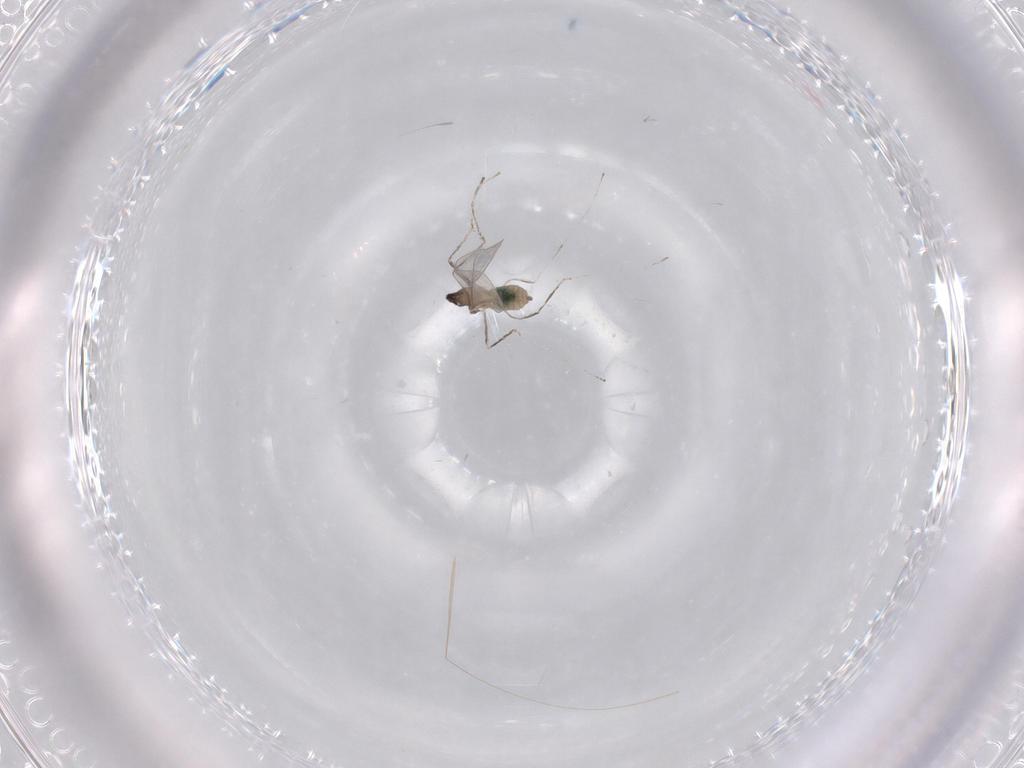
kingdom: Animalia
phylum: Arthropoda
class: Insecta
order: Diptera
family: Cecidomyiidae
